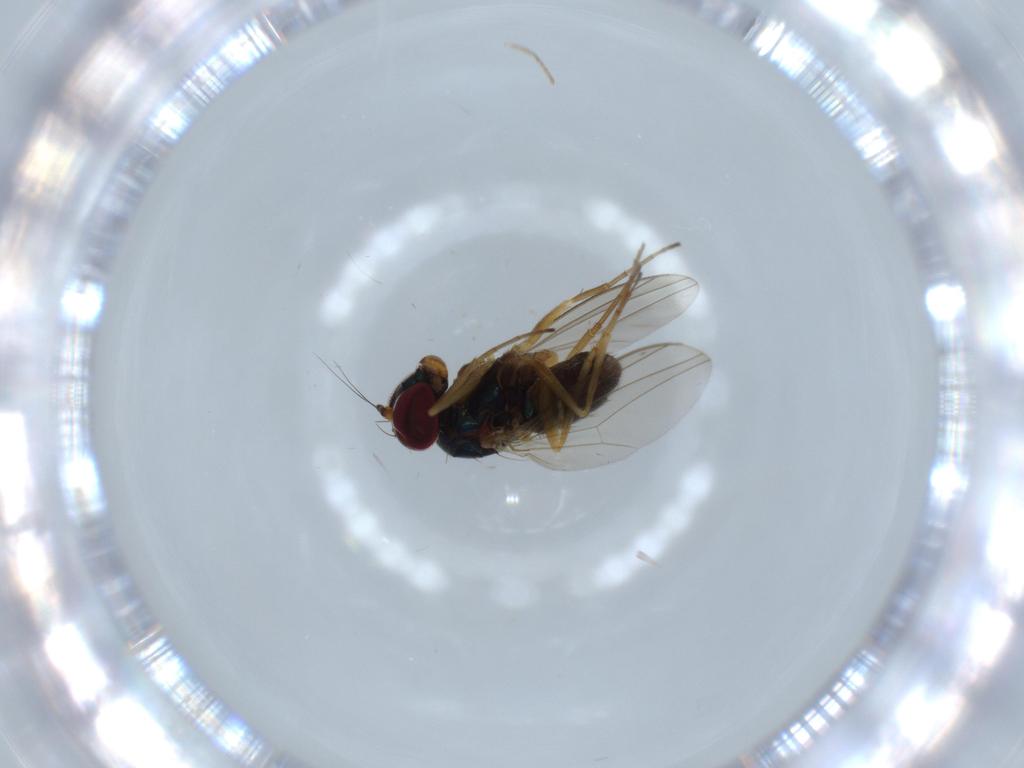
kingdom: Animalia
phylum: Arthropoda
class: Insecta
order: Diptera
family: Dolichopodidae
